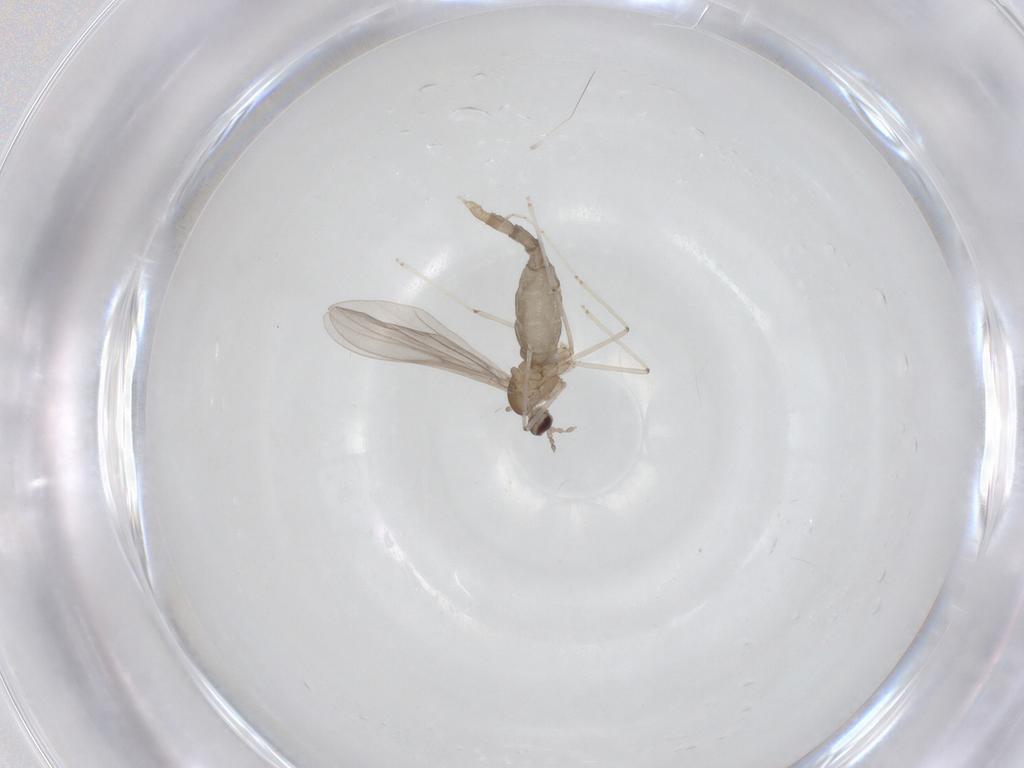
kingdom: Animalia
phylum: Arthropoda
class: Insecta
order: Diptera
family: Cecidomyiidae
